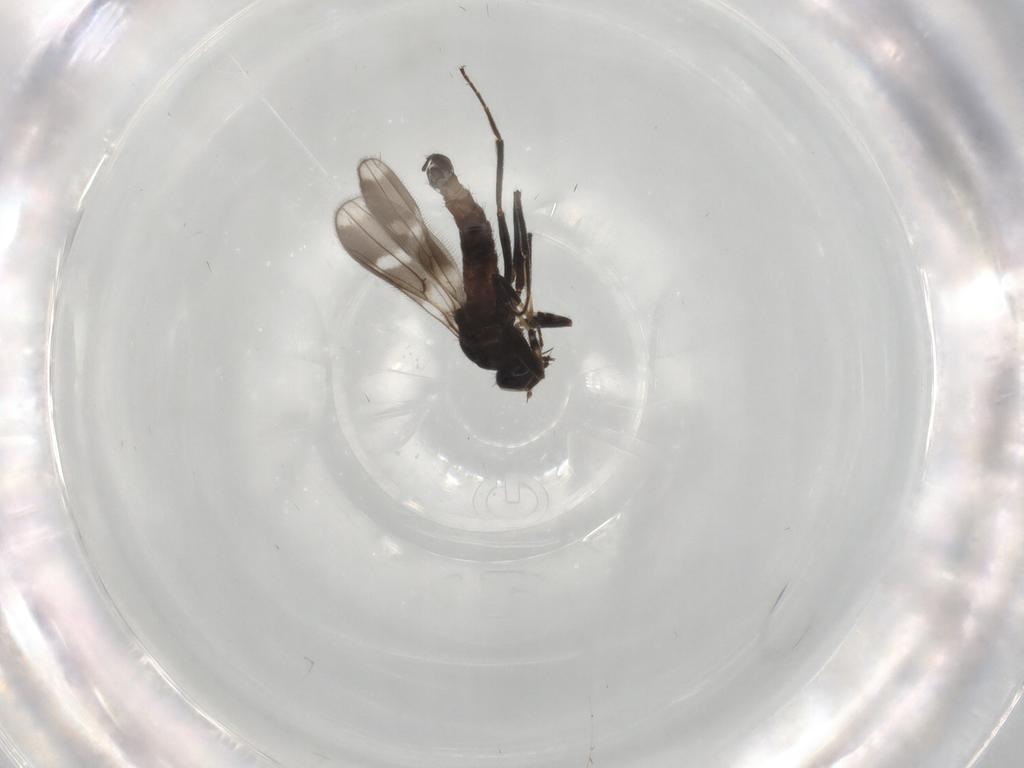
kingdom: Animalia
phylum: Arthropoda
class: Insecta
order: Diptera
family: Hybotidae
